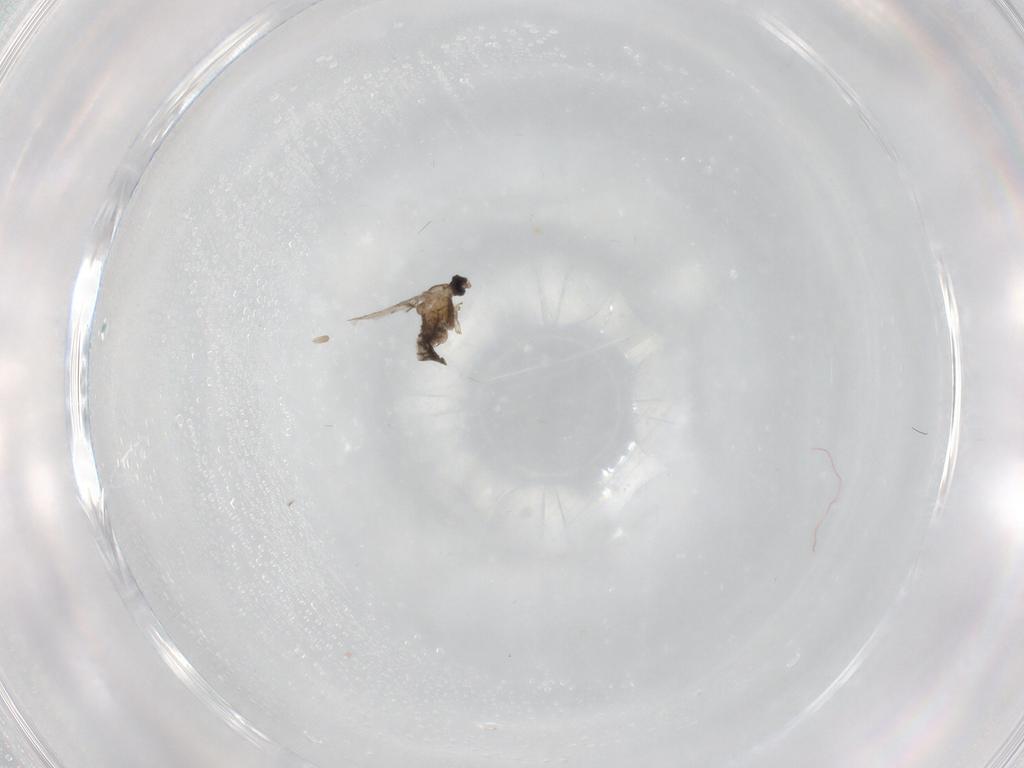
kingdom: Animalia
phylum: Arthropoda
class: Insecta
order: Diptera
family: Cecidomyiidae
